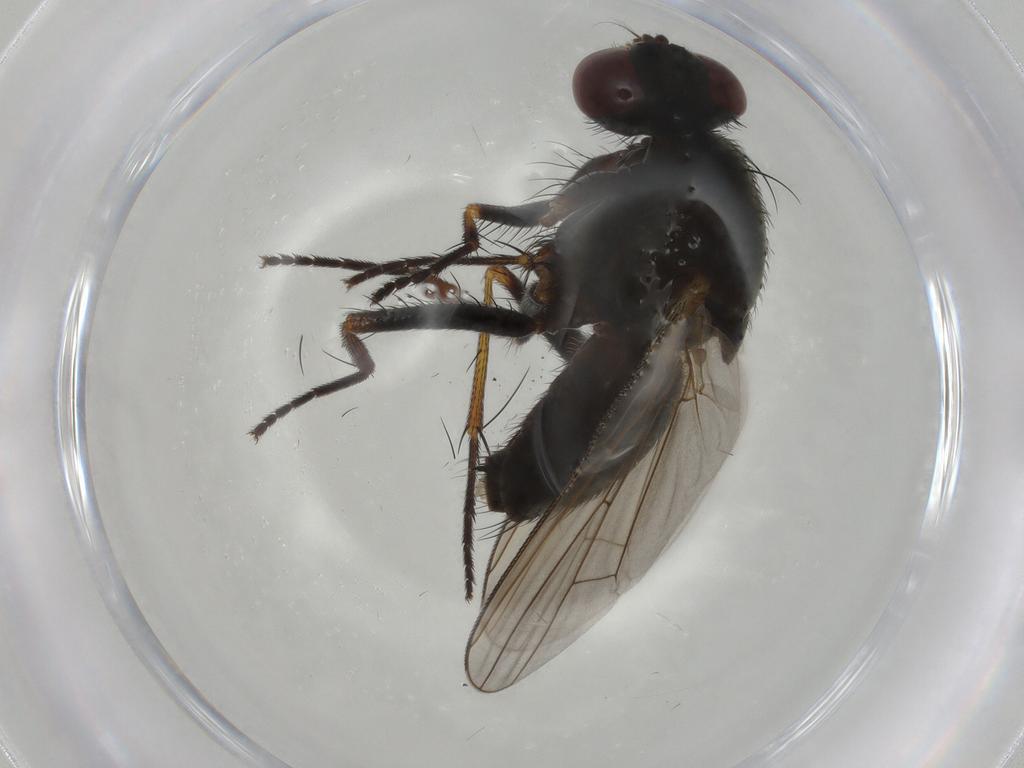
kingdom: Animalia
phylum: Arthropoda
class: Insecta
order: Diptera
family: Muscidae
